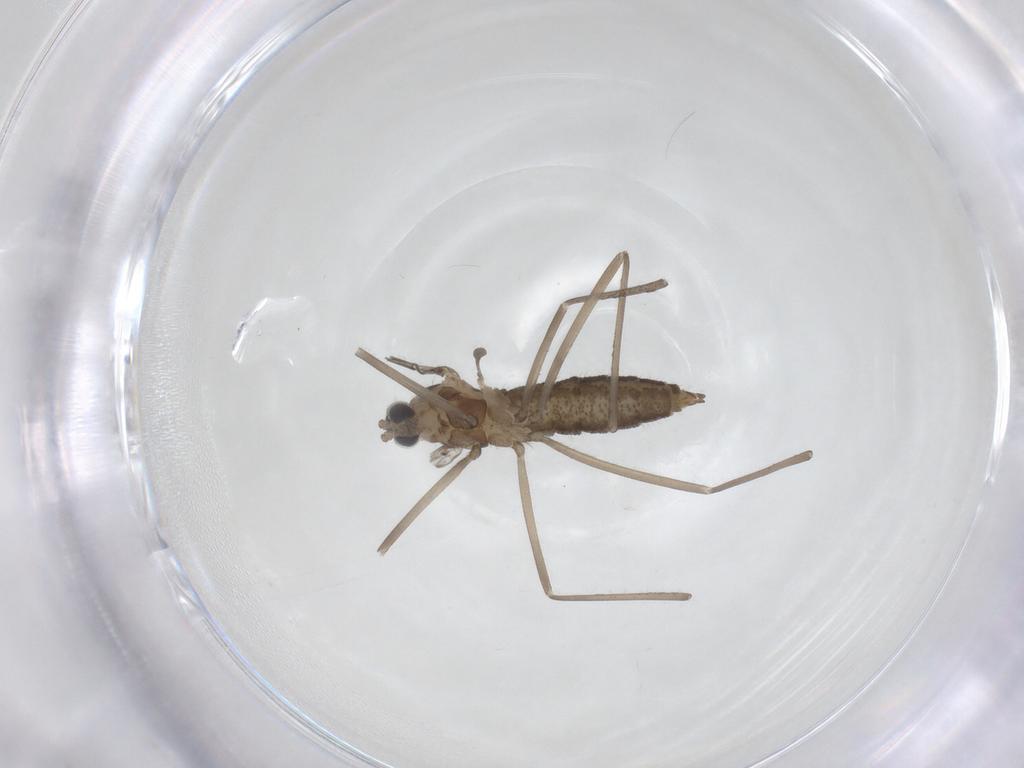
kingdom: Animalia
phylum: Arthropoda
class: Insecta
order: Diptera
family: Cecidomyiidae
